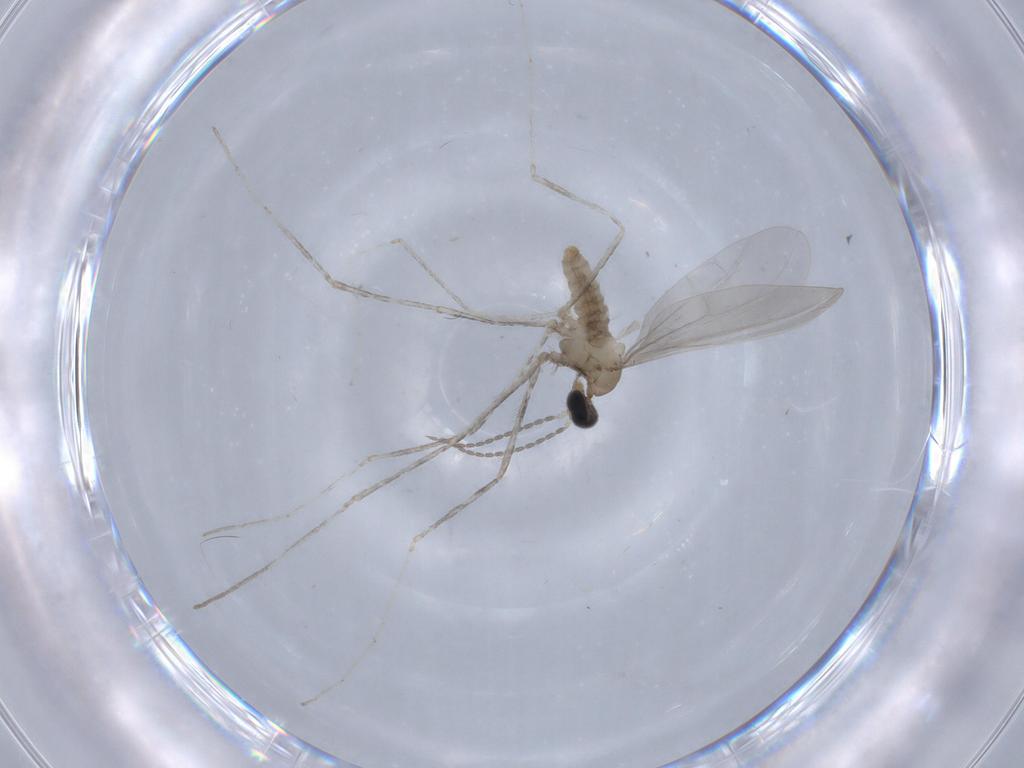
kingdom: Animalia
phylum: Arthropoda
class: Insecta
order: Diptera
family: Cecidomyiidae
